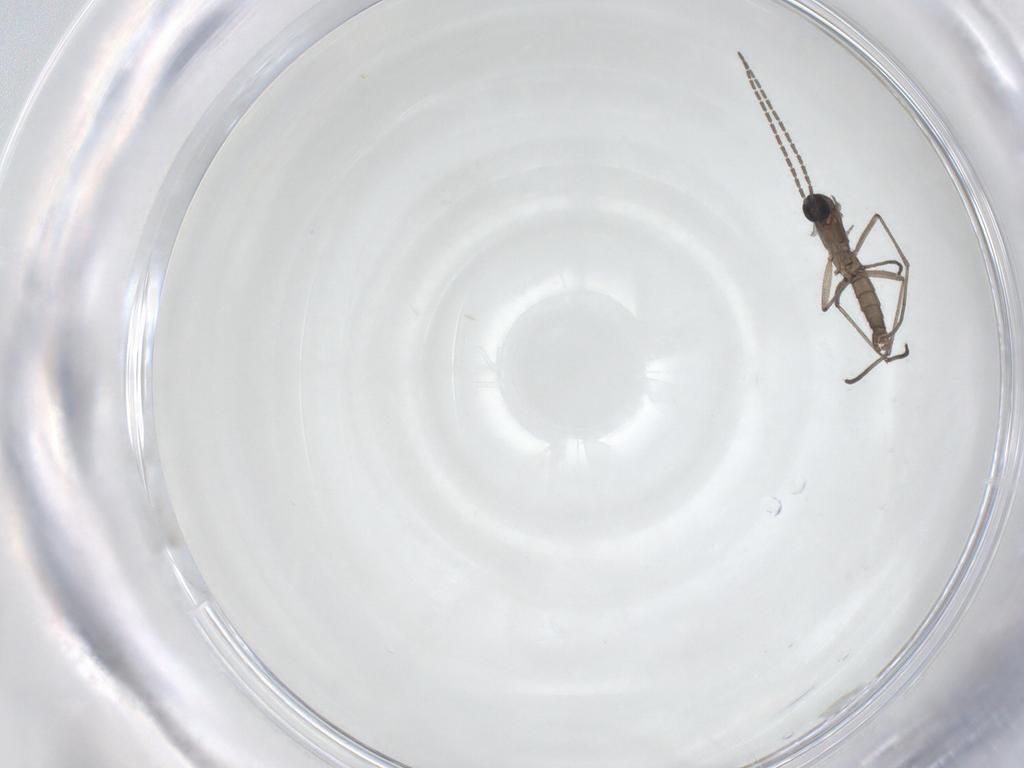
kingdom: Animalia
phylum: Arthropoda
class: Insecta
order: Diptera
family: Sciaridae
